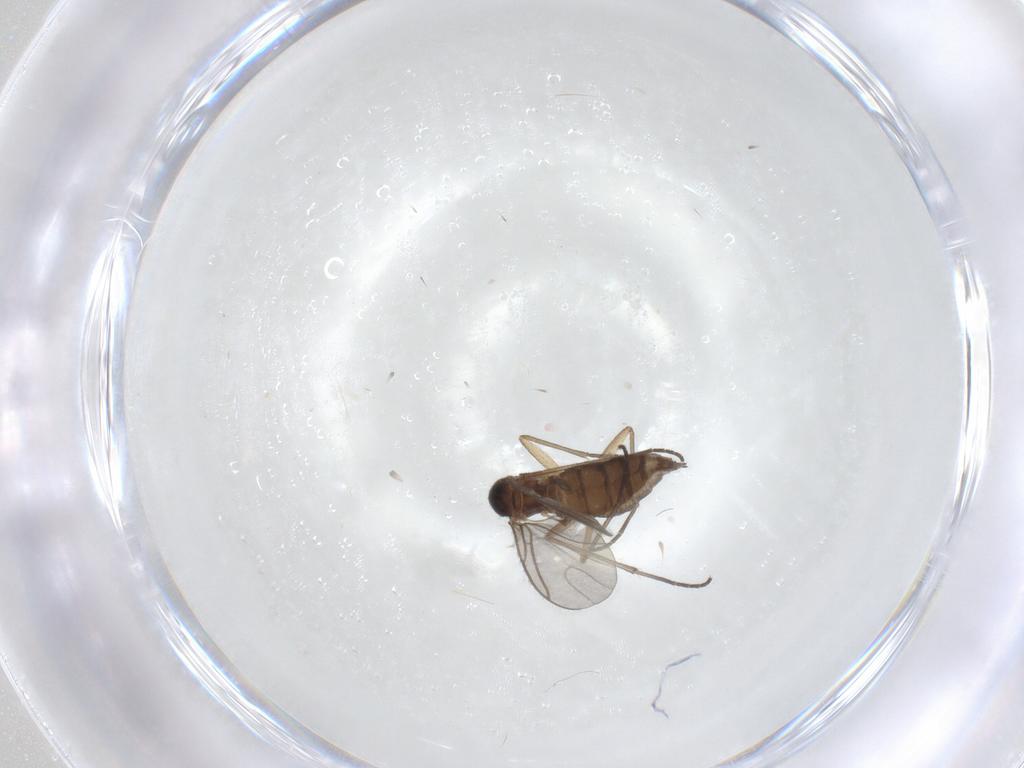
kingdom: Animalia
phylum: Arthropoda
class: Insecta
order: Diptera
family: Sciaridae
